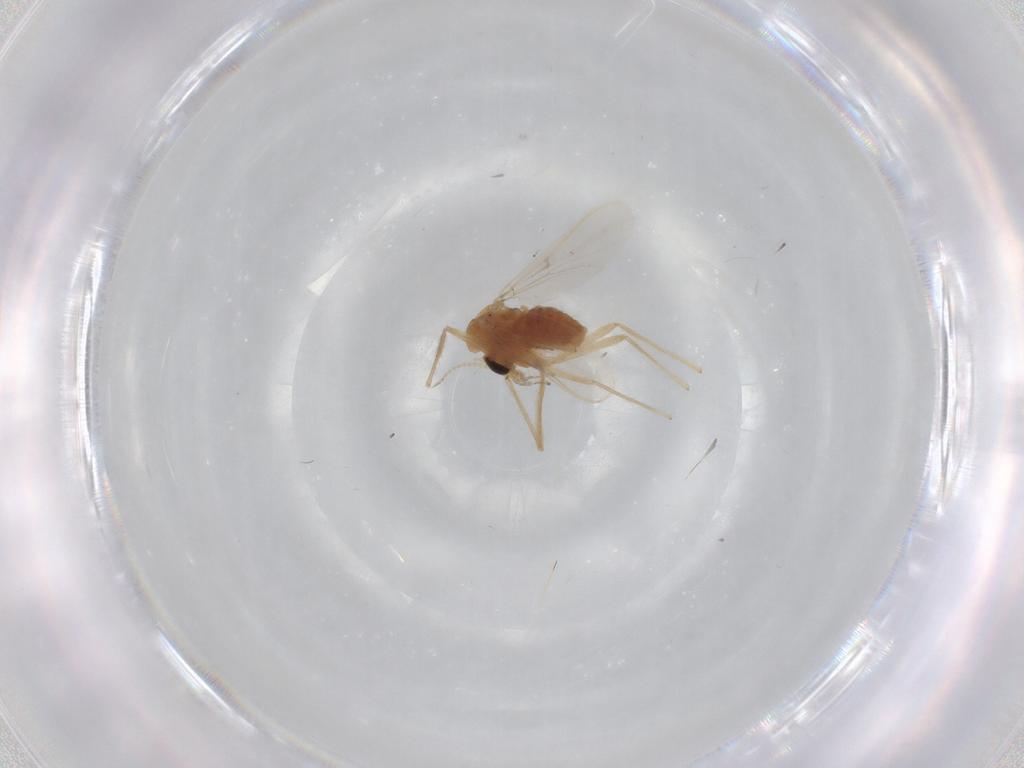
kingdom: Animalia
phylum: Arthropoda
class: Insecta
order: Diptera
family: Chironomidae
